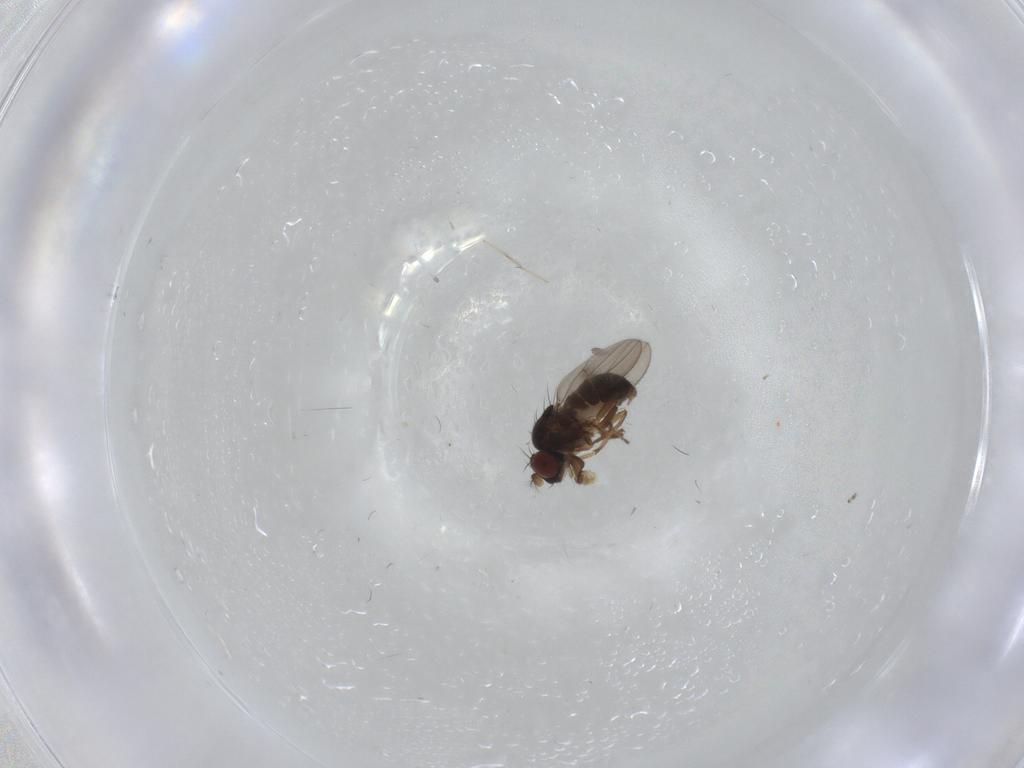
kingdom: Animalia
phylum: Arthropoda
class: Insecta
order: Diptera
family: Ephydridae
